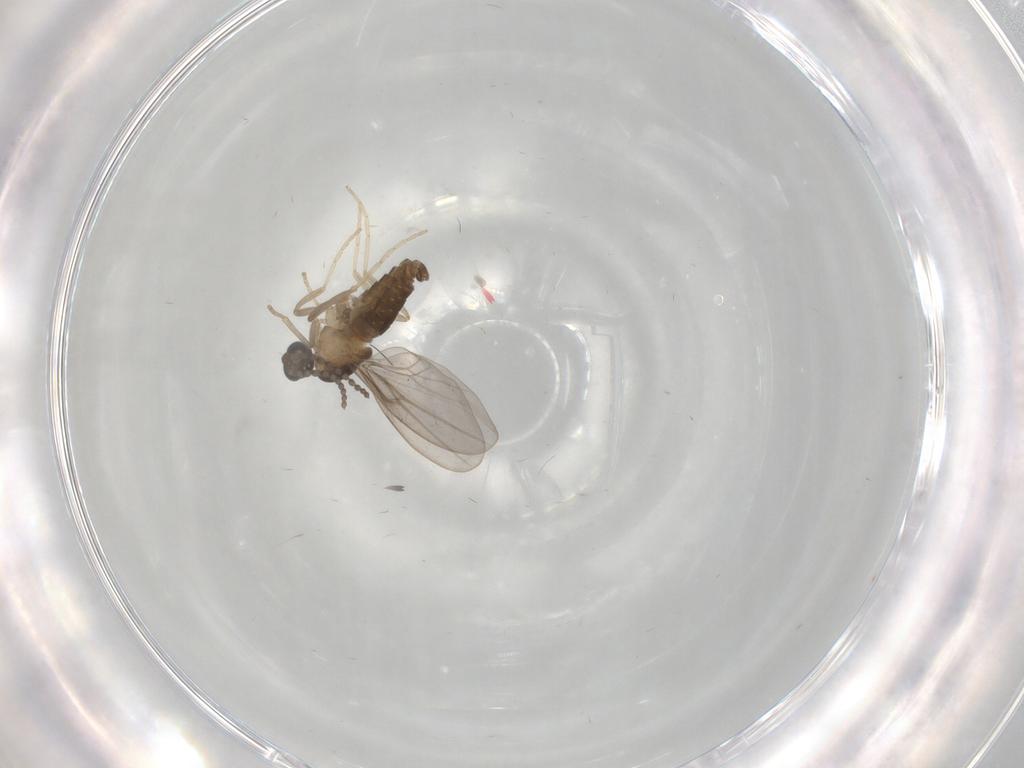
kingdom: Animalia
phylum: Arthropoda
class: Insecta
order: Diptera
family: Cecidomyiidae
